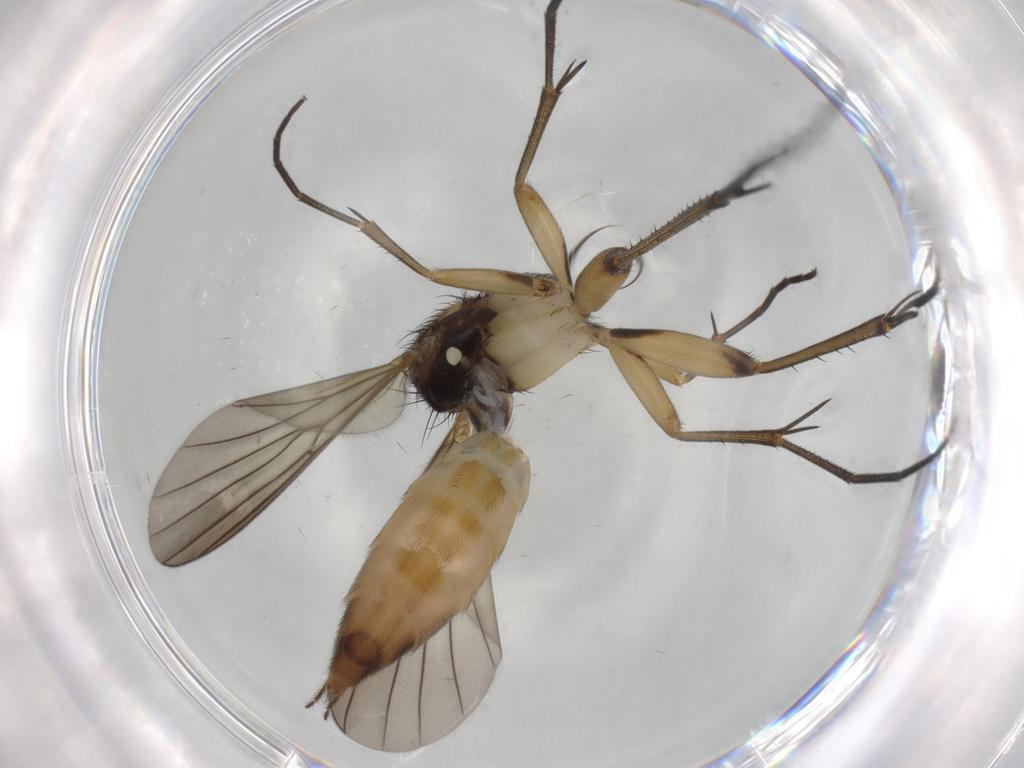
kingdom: Animalia
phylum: Arthropoda
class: Insecta
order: Diptera
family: Mycetophilidae
